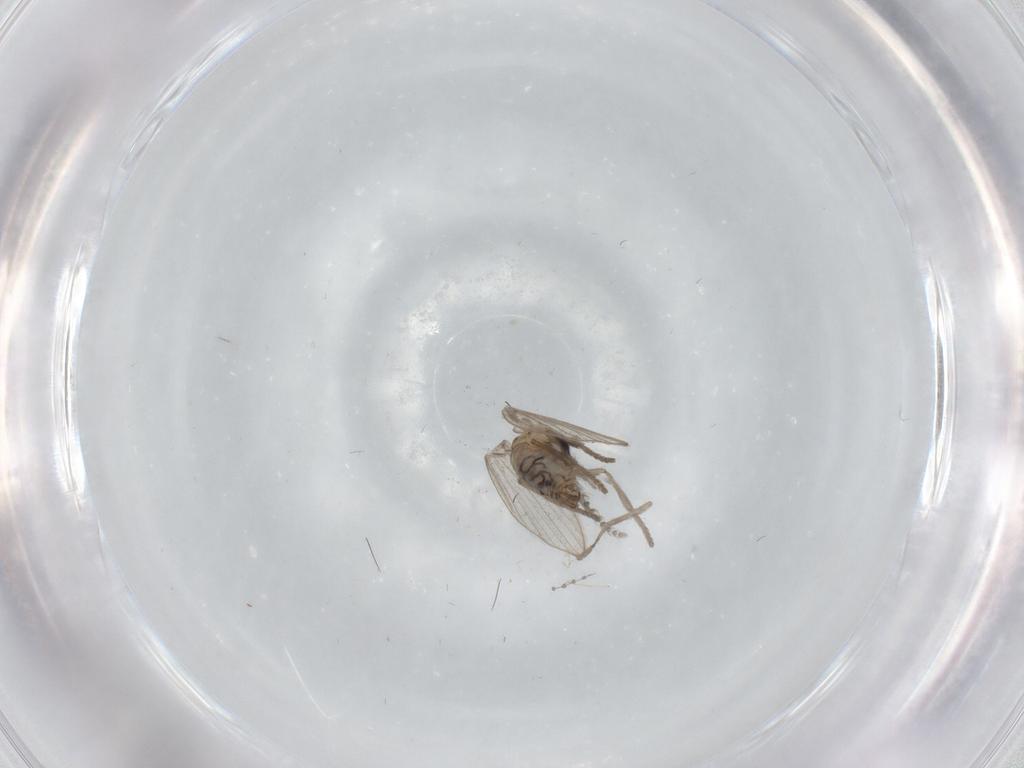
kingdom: Animalia
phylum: Arthropoda
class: Insecta
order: Diptera
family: Psychodidae
